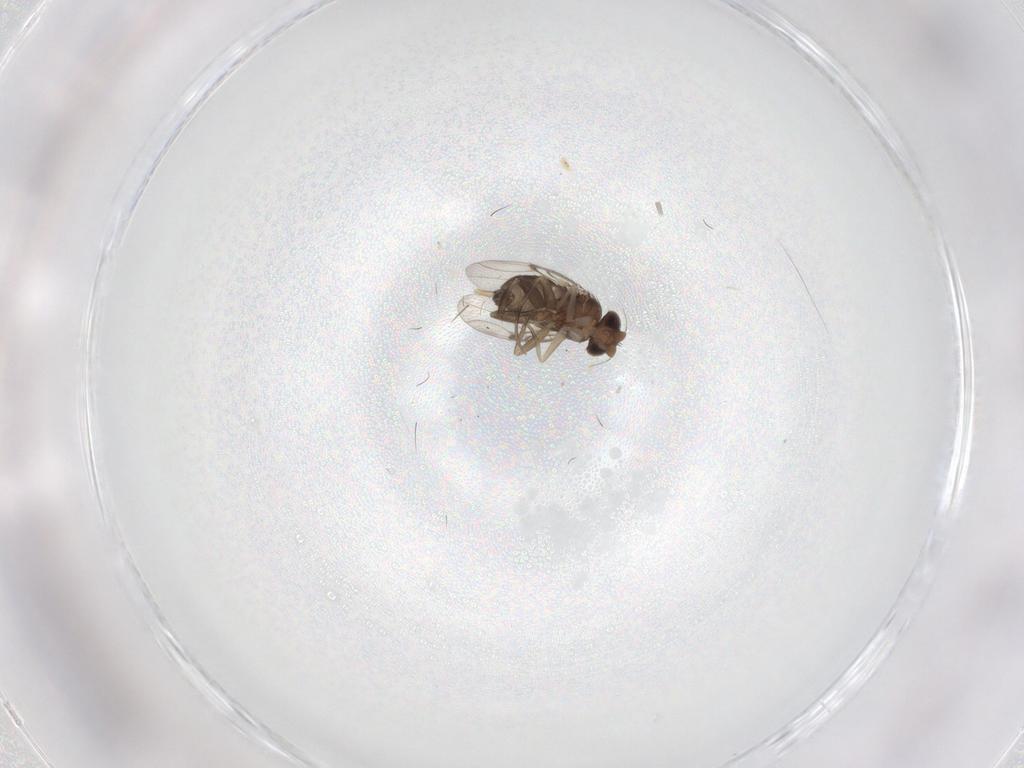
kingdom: Animalia
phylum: Arthropoda
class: Insecta
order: Diptera
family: Phoridae
